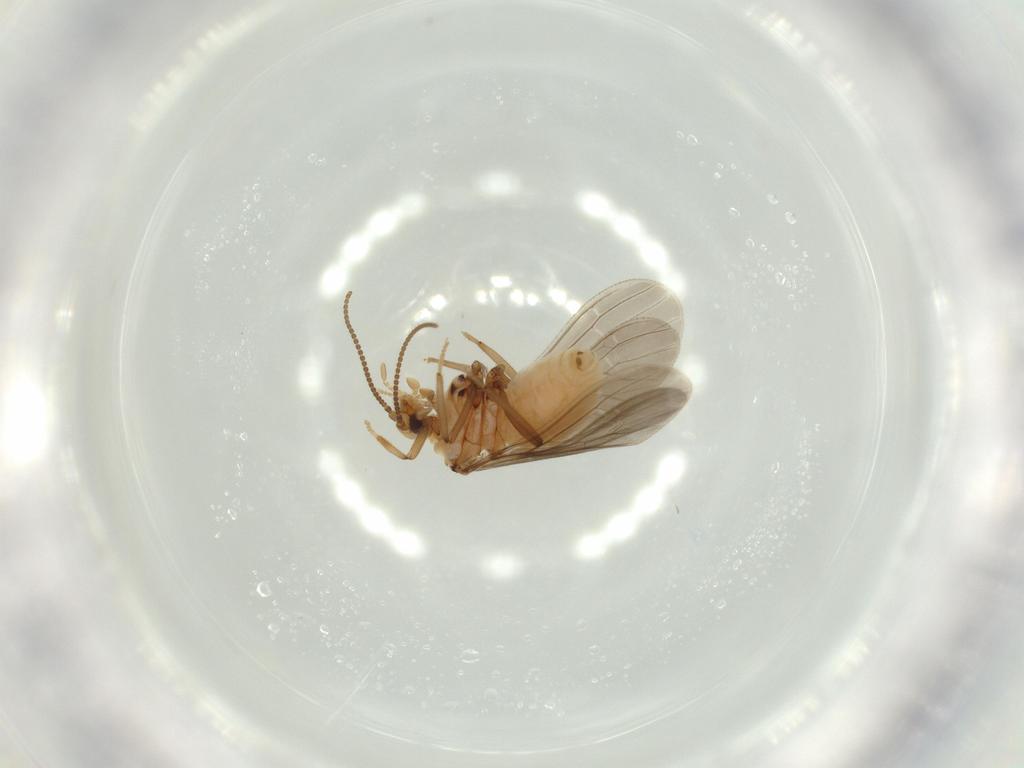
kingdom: Animalia
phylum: Arthropoda
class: Insecta
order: Neuroptera
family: Coniopterygidae
